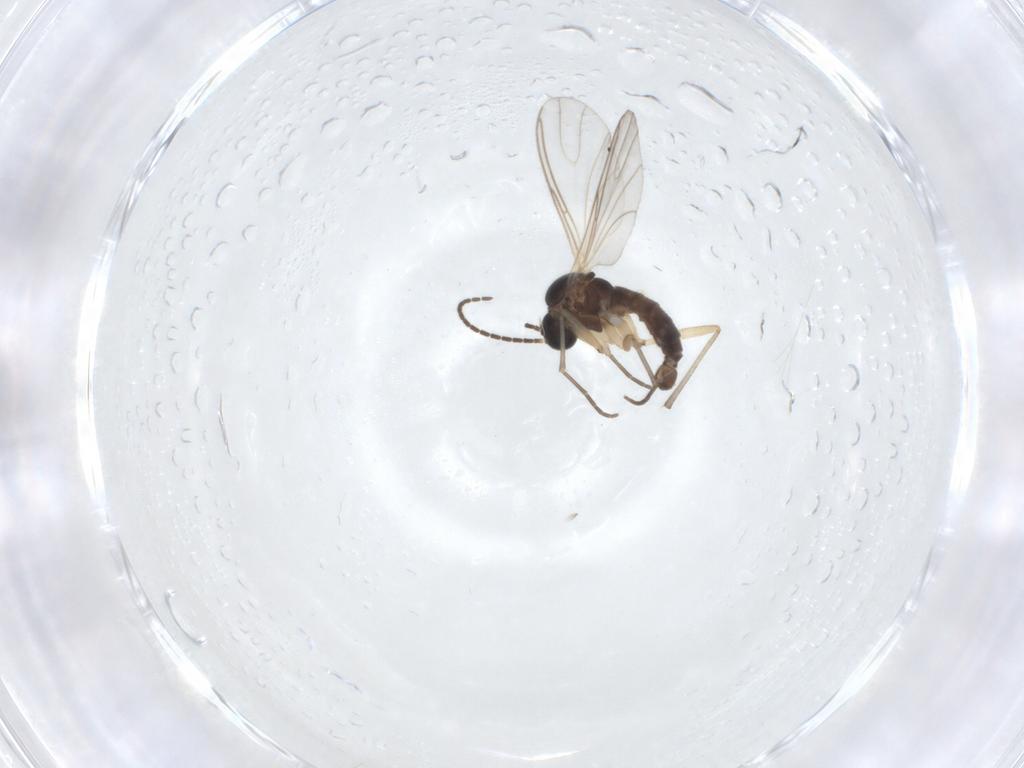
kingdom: Animalia
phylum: Arthropoda
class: Insecta
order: Diptera
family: Sciaridae
